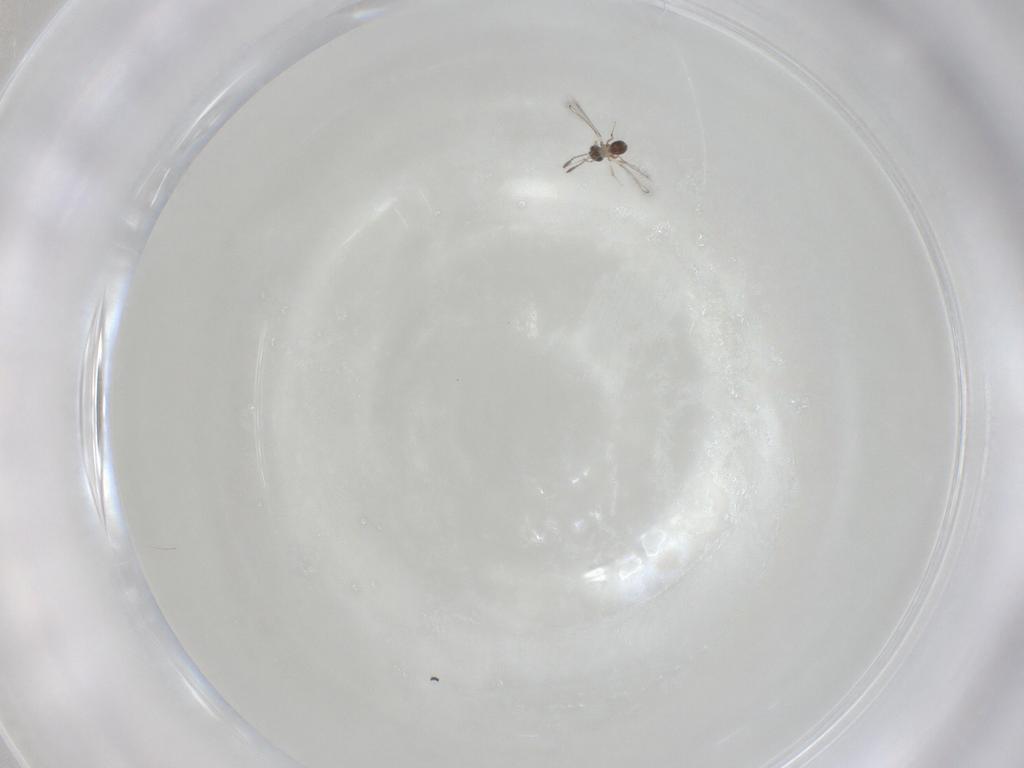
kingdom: Animalia
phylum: Arthropoda
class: Insecta
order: Hymenoptera
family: Mymaridae
